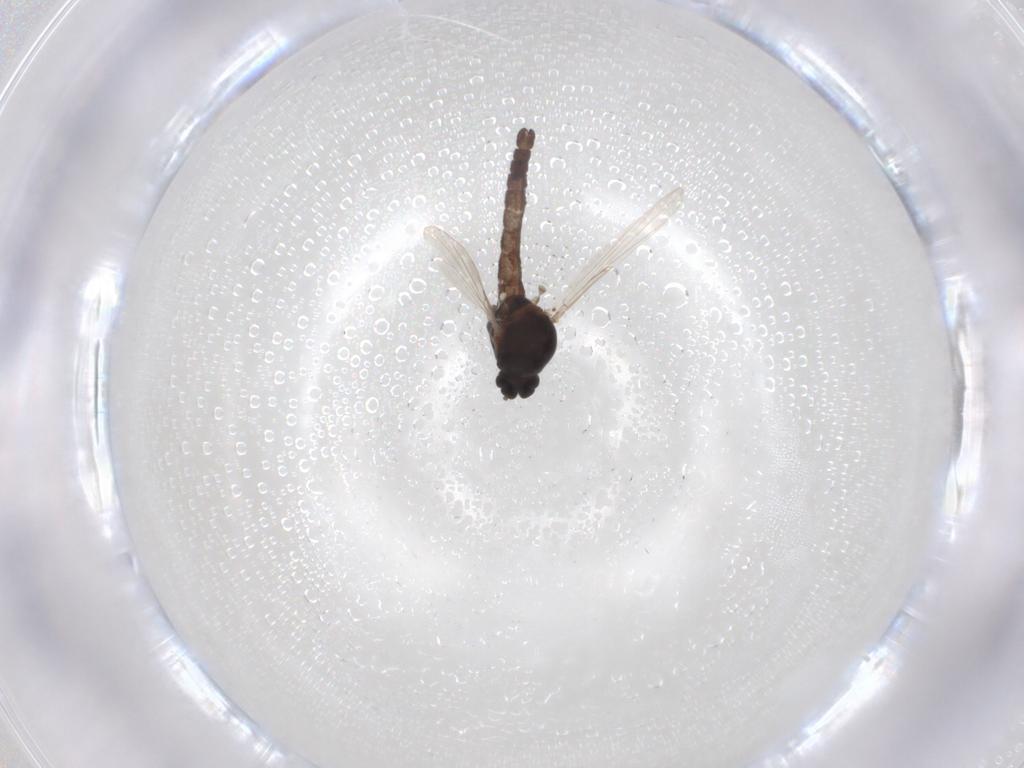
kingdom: Animalia
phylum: Arthropoda
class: Insecta
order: Diptera
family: Ceratopogonidae
